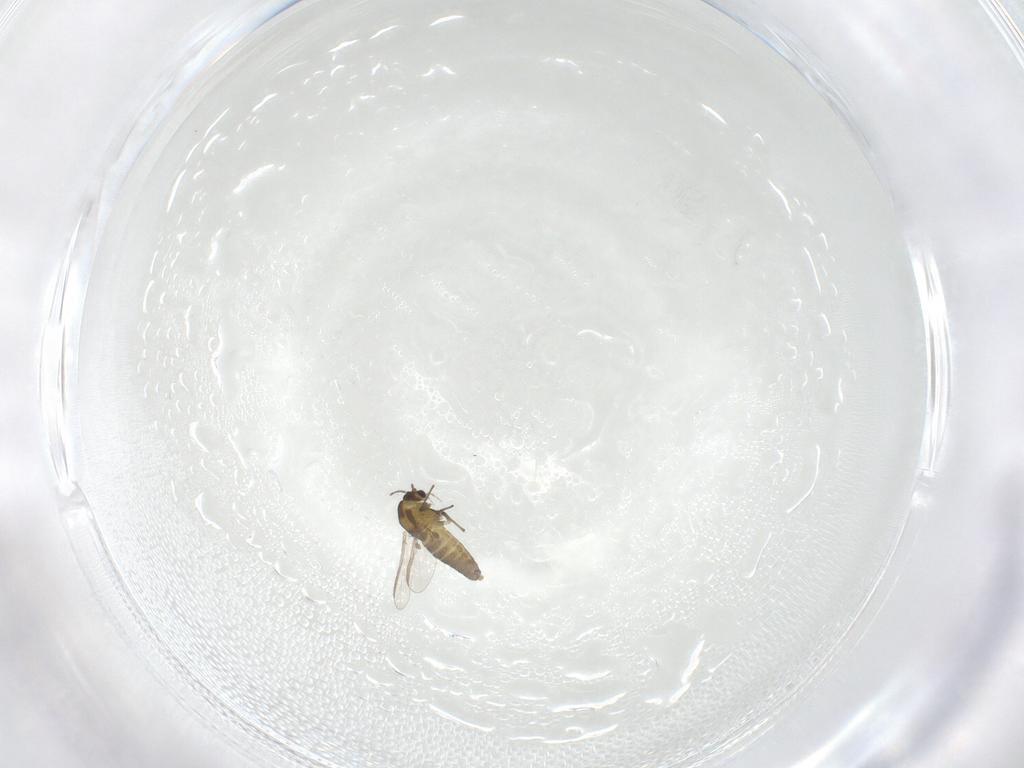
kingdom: Animalia
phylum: Arthropoda
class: Insecta
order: Diptera
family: Chironomidae
